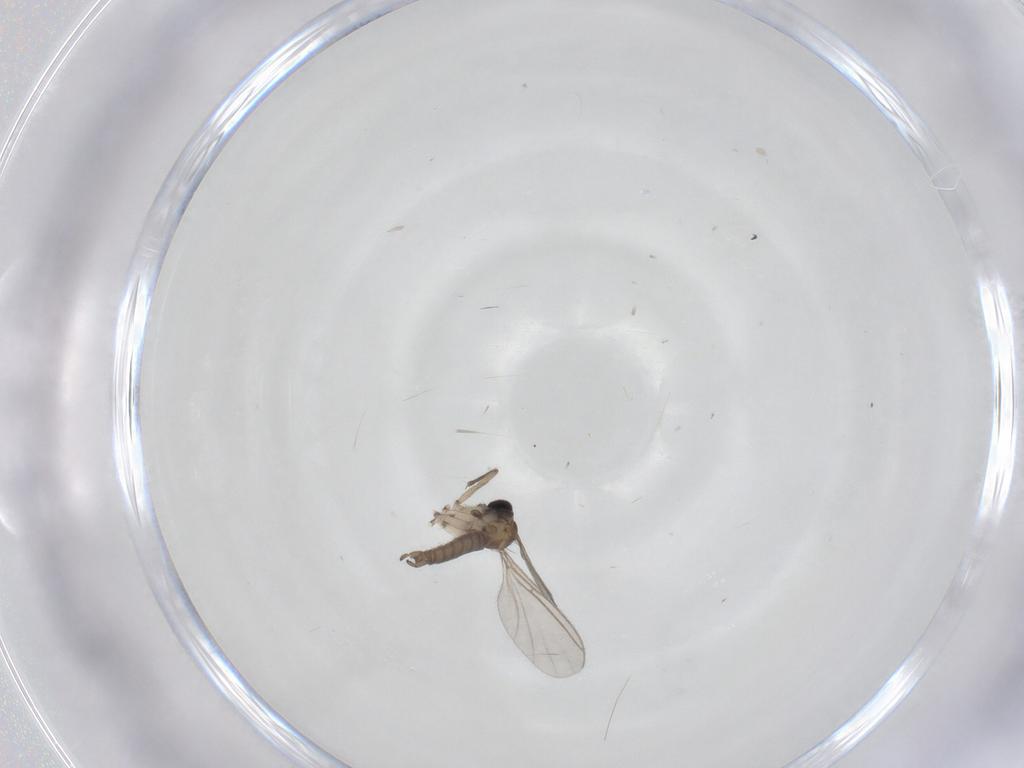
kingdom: Animalia
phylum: Arthropoda
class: Insecta
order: Diptera
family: Sciaridae
